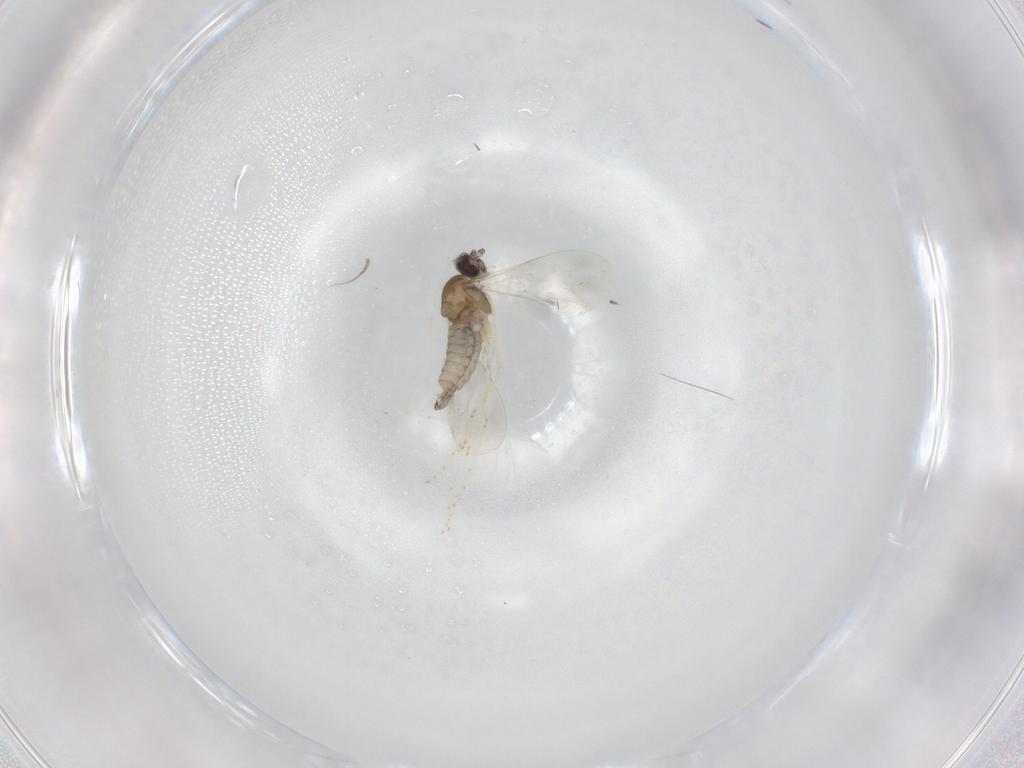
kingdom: Animalia
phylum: Arthropoda
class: Insecta
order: Diptera
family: Cecidomyiidae
